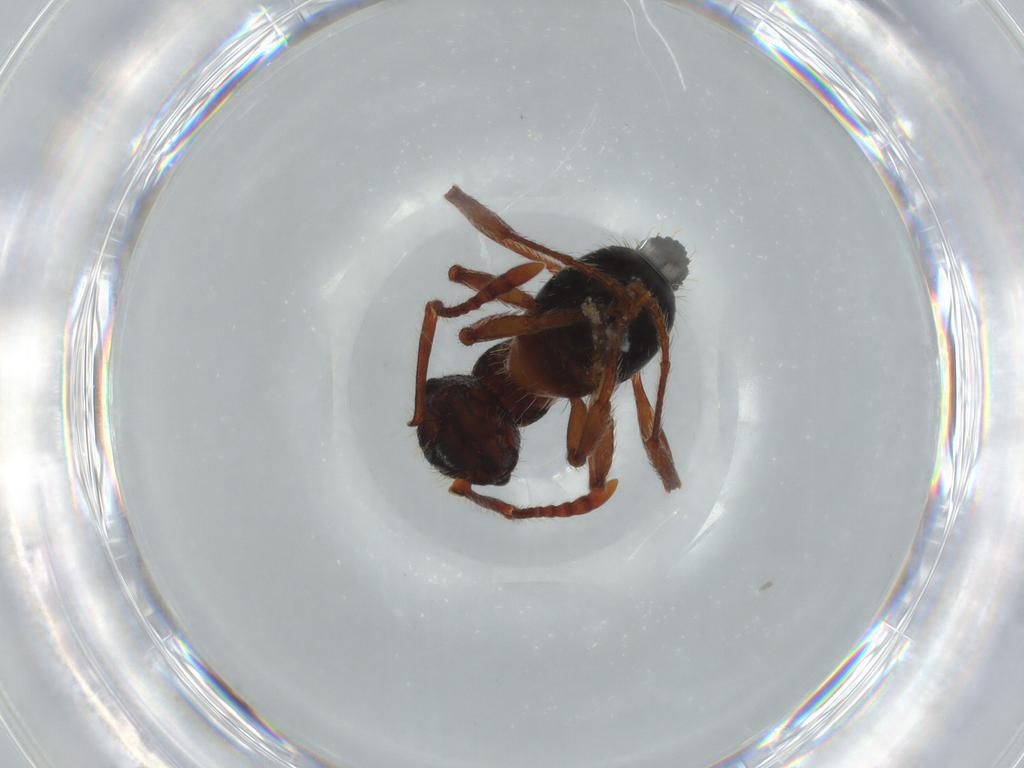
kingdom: Animalia
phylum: Arthropoda
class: Insecta
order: Hymenoptera
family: Formicidae
